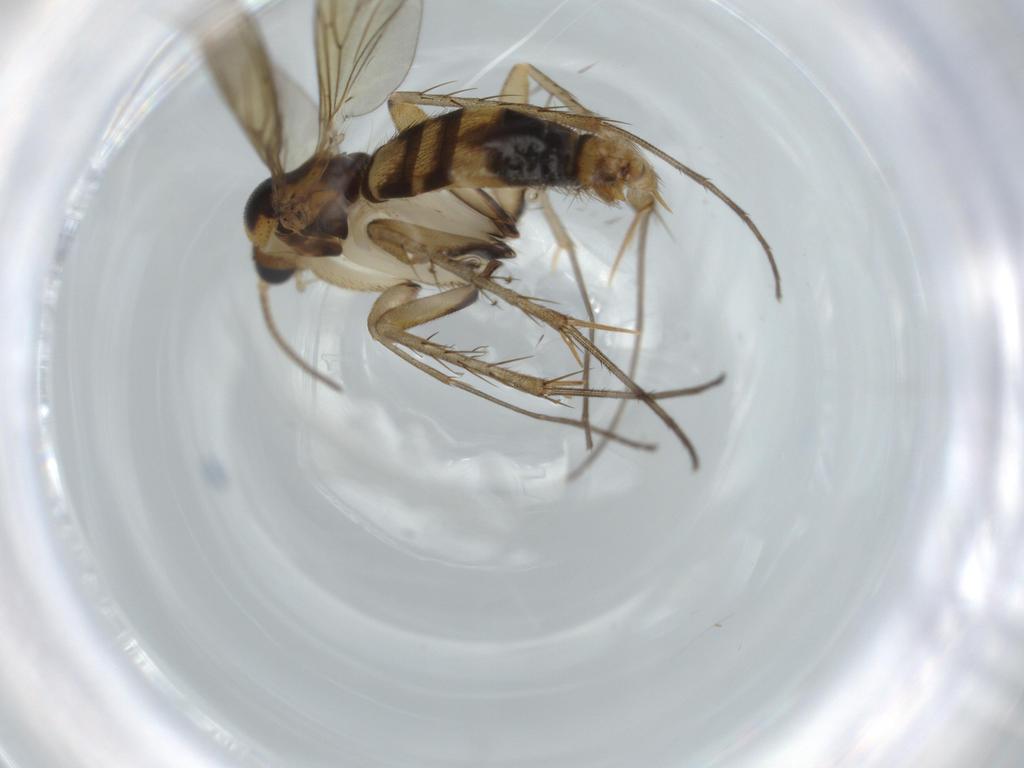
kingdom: Animalia
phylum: Arthropoda
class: Insecta
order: Diptera
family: Mycetophilidae
